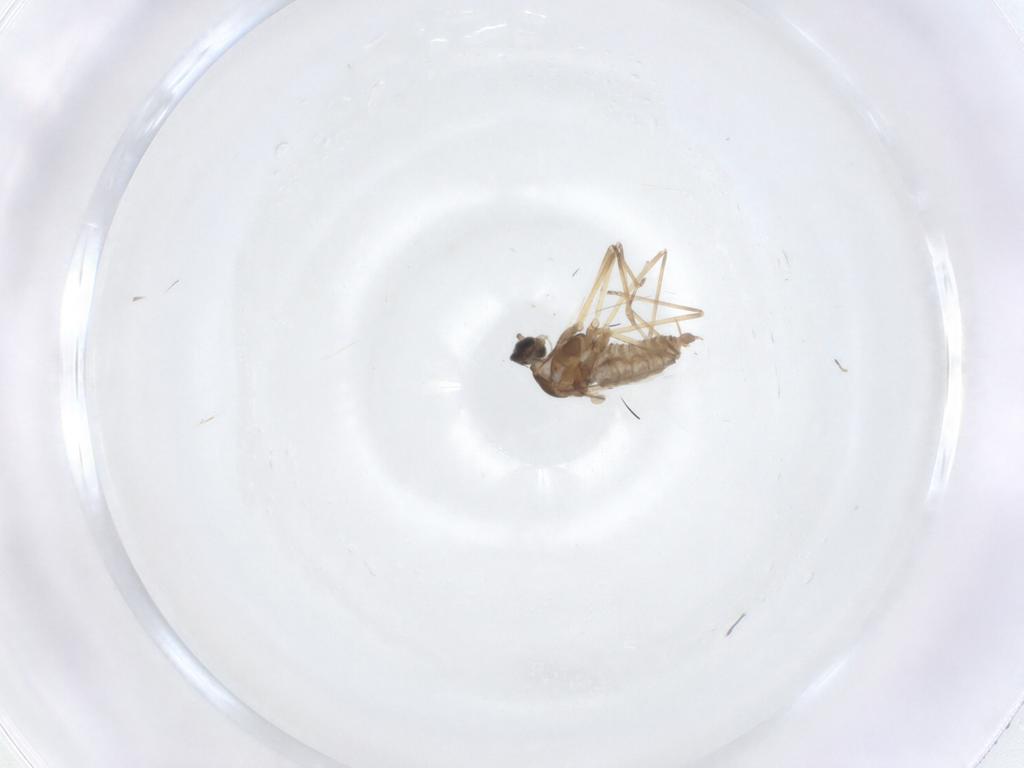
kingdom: Animalia
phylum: Arthropoda
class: Insecta
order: Diptera
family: Cecidomyiidae
